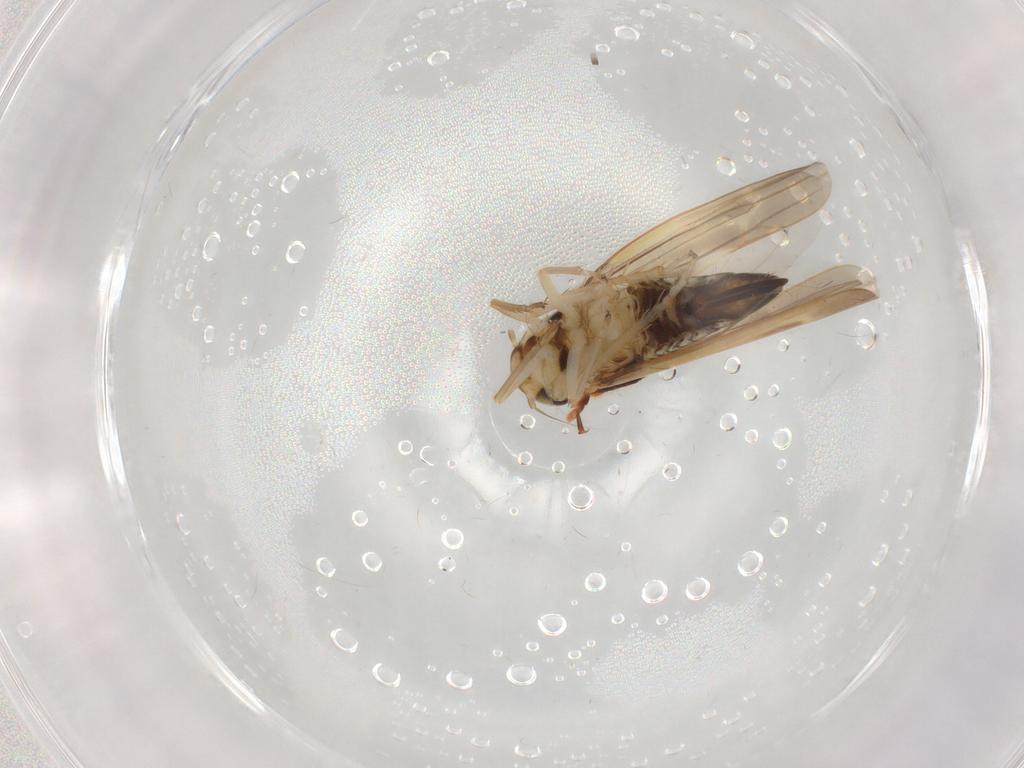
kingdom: Animalia
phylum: Arthropoda
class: Insecta
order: Hemiptera
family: Cicadellidae
